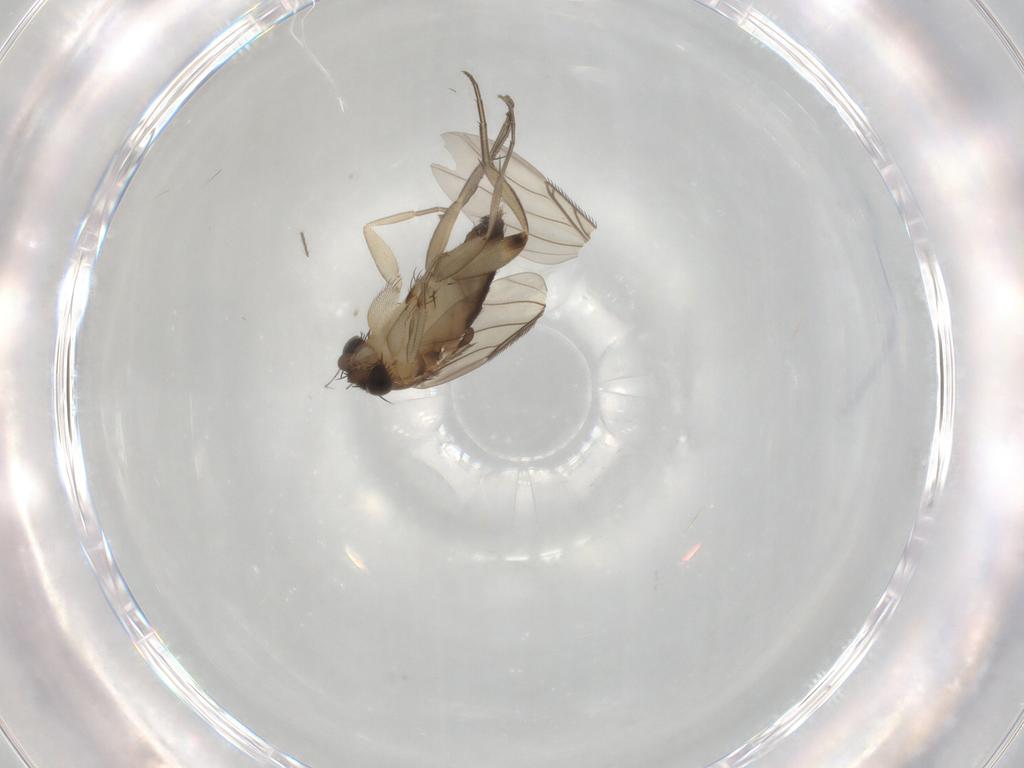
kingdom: Animalia
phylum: Arthropoda
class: Insecta
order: Diptera
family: Phoridae
